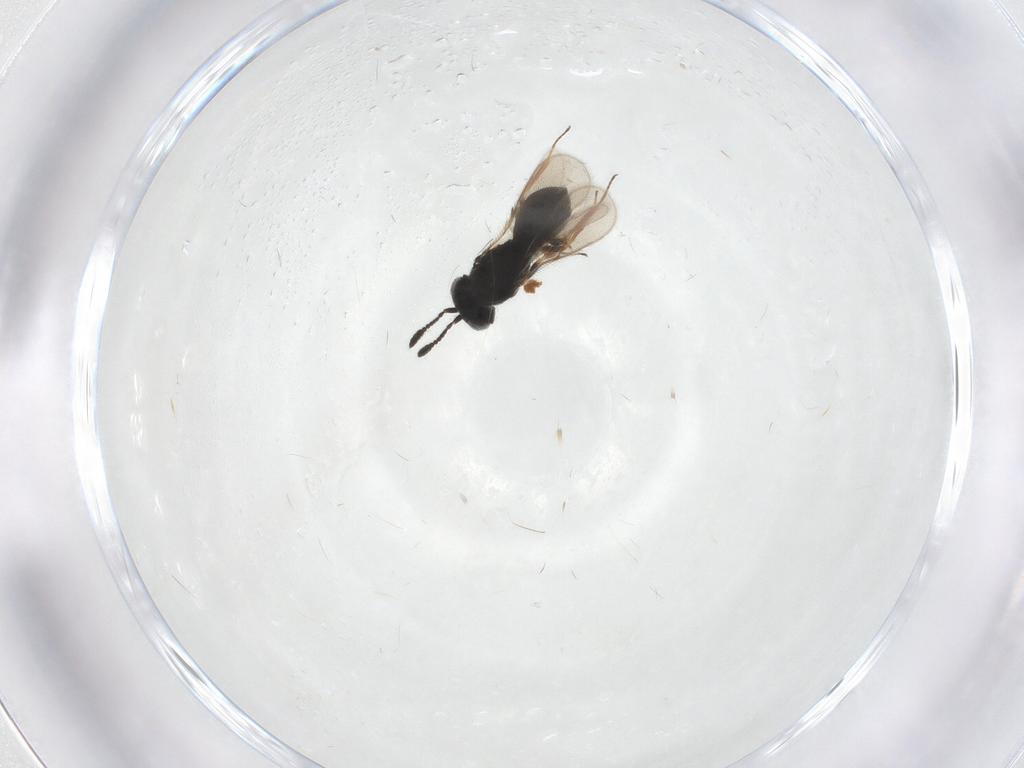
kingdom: Animalia
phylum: Arthropoda
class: Insecta
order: Hymenoptera
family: Scelionidae
